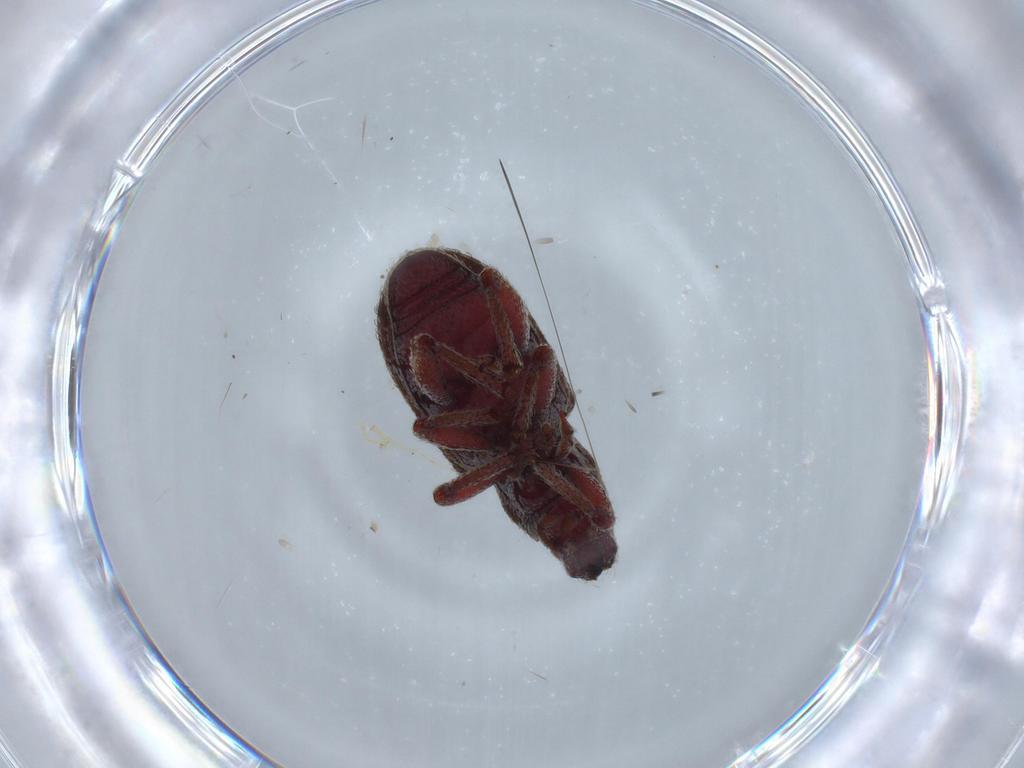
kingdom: Animalia
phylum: Arthropoda
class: Insecta
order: Coleoptera
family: Curculionidae
